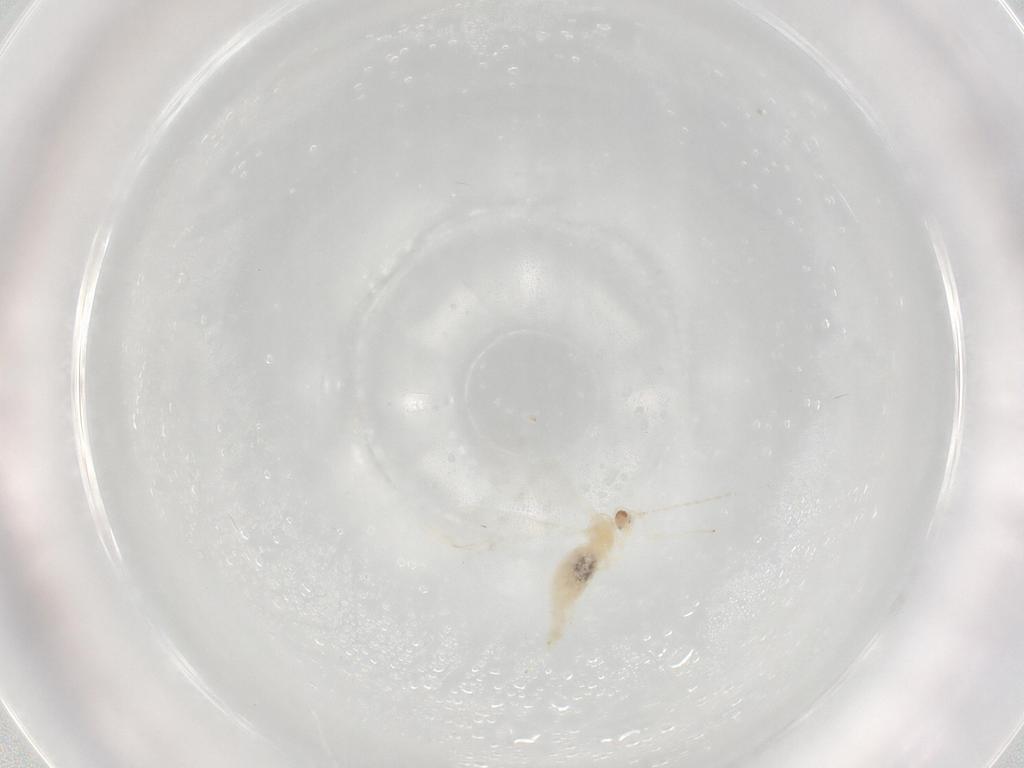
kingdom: Animalia
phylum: Arthropoda
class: Insecta
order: Diptera
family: Cecidomyiidae
